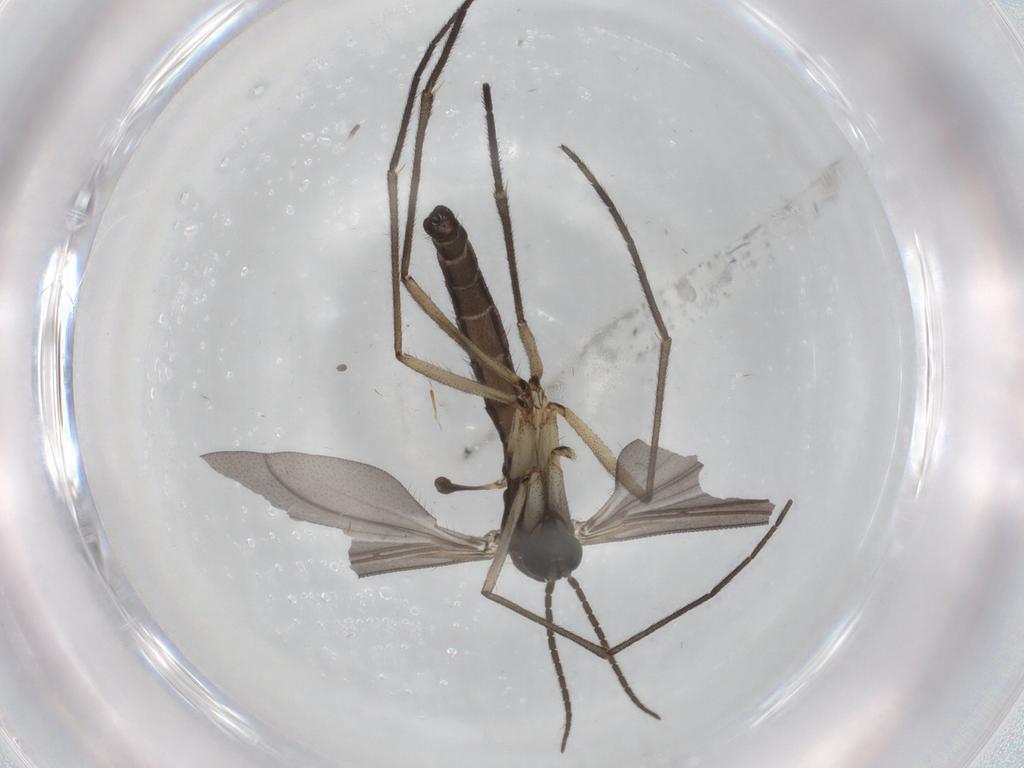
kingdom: Animalia
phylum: Arthropoda
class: Insecta
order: Diptera
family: Sciaridae
